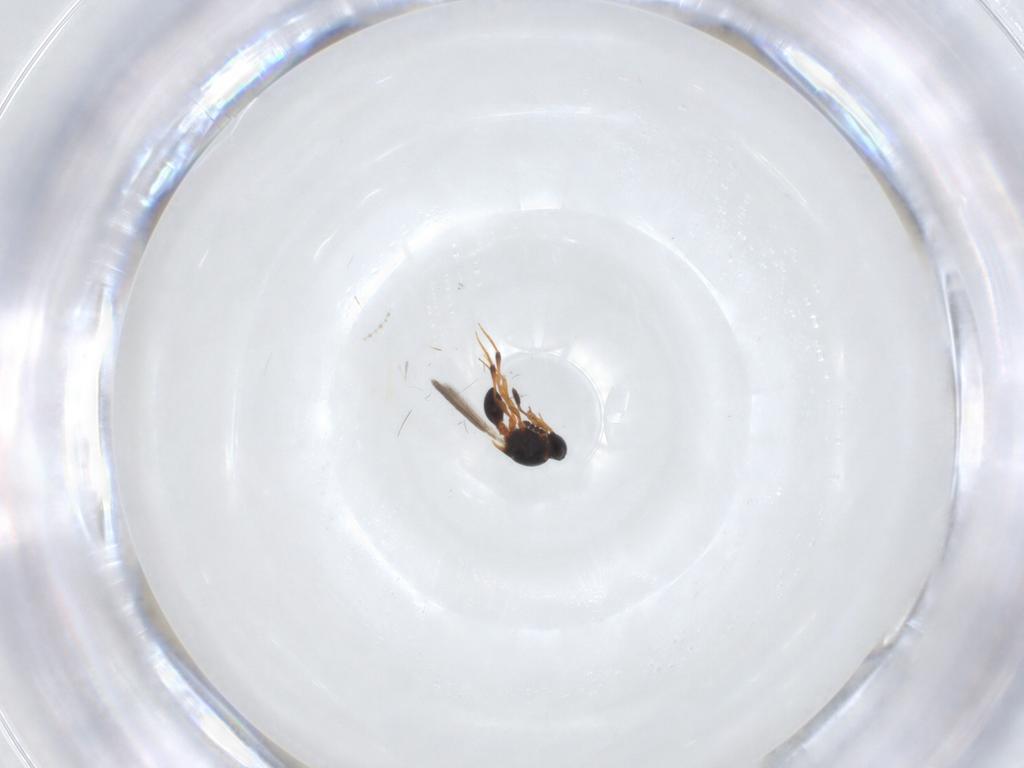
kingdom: Animalia
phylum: Arthropoda
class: Insecta
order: Hymenoptera
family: Platygastridae
